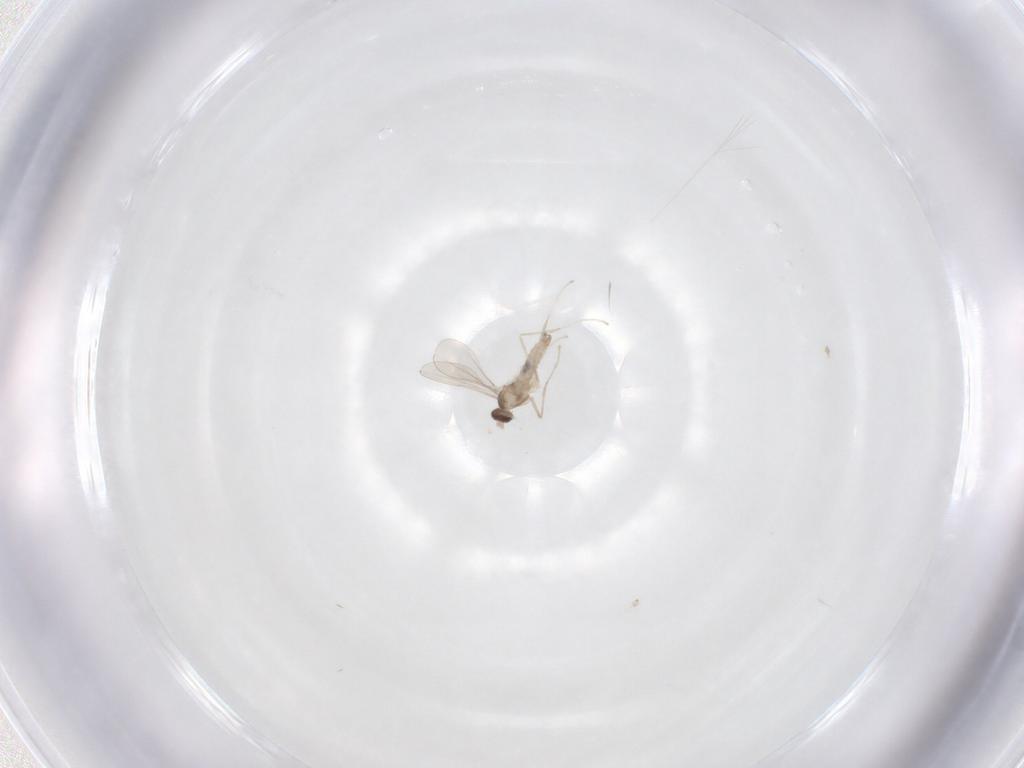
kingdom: Animalia
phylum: Arthropoda
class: Insecta
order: Diptera
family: Cecidomyiidae
